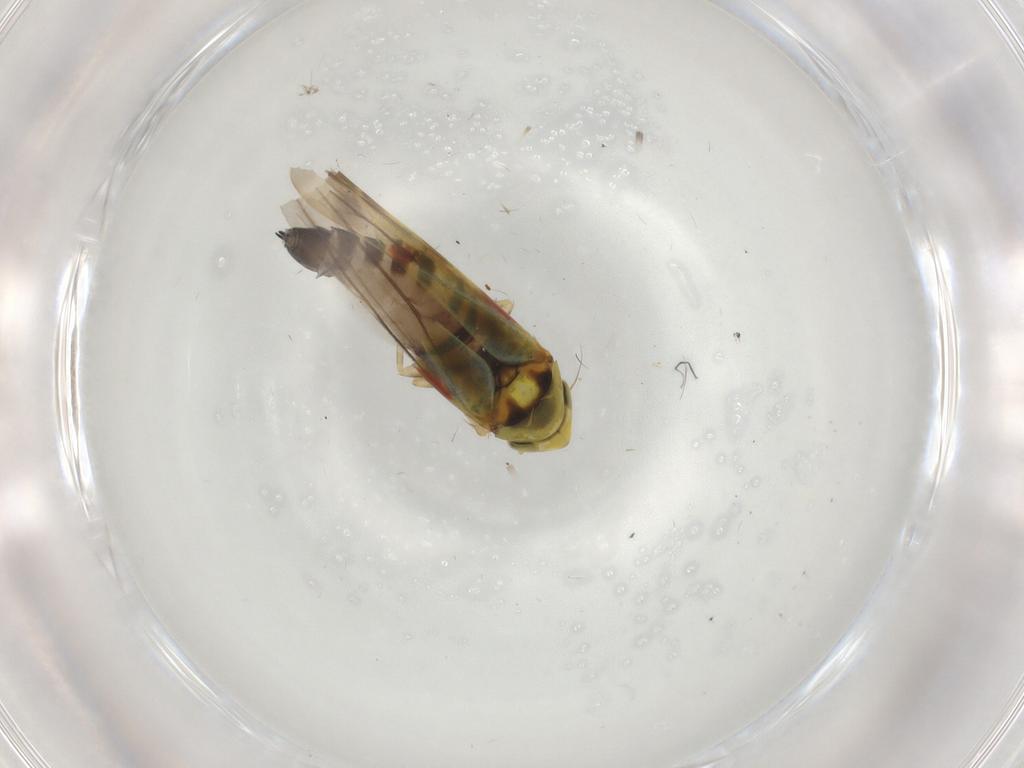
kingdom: Animalia
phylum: Arthropoda
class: Insecta
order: Hemiptera
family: Cicadellidae
